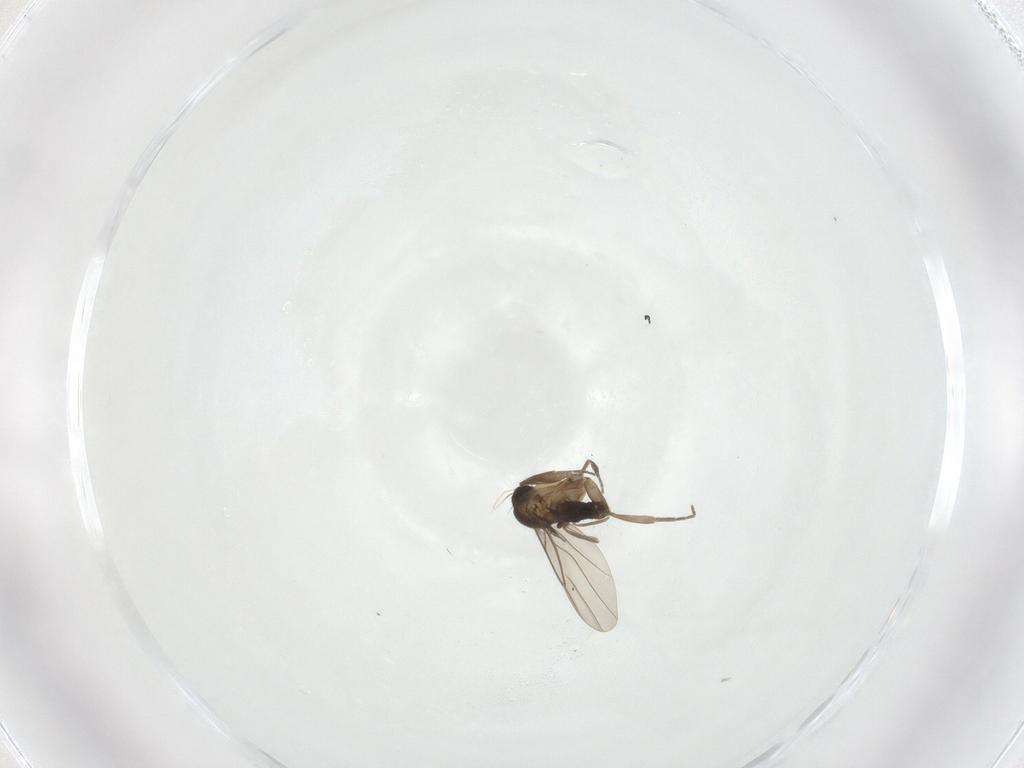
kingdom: Animalia
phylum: Arthropoda
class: Insecta
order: Diptera
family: Phoridae
